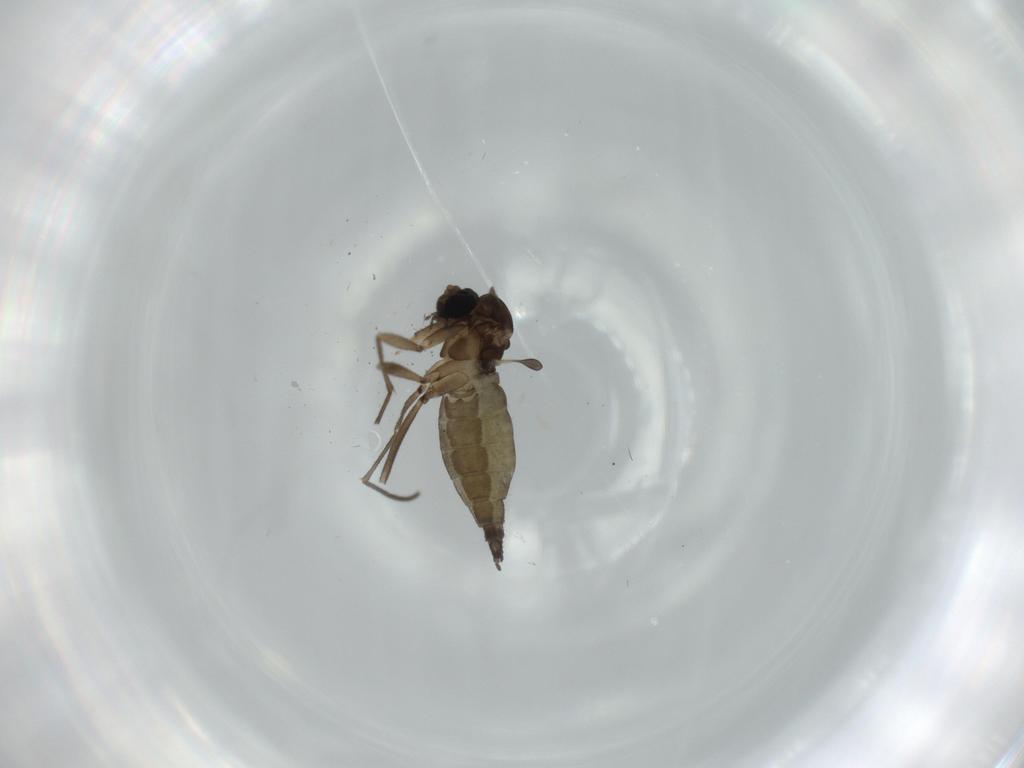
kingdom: Animalia
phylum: Arthropoda
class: Insecta
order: Diptera
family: Sciaridae
